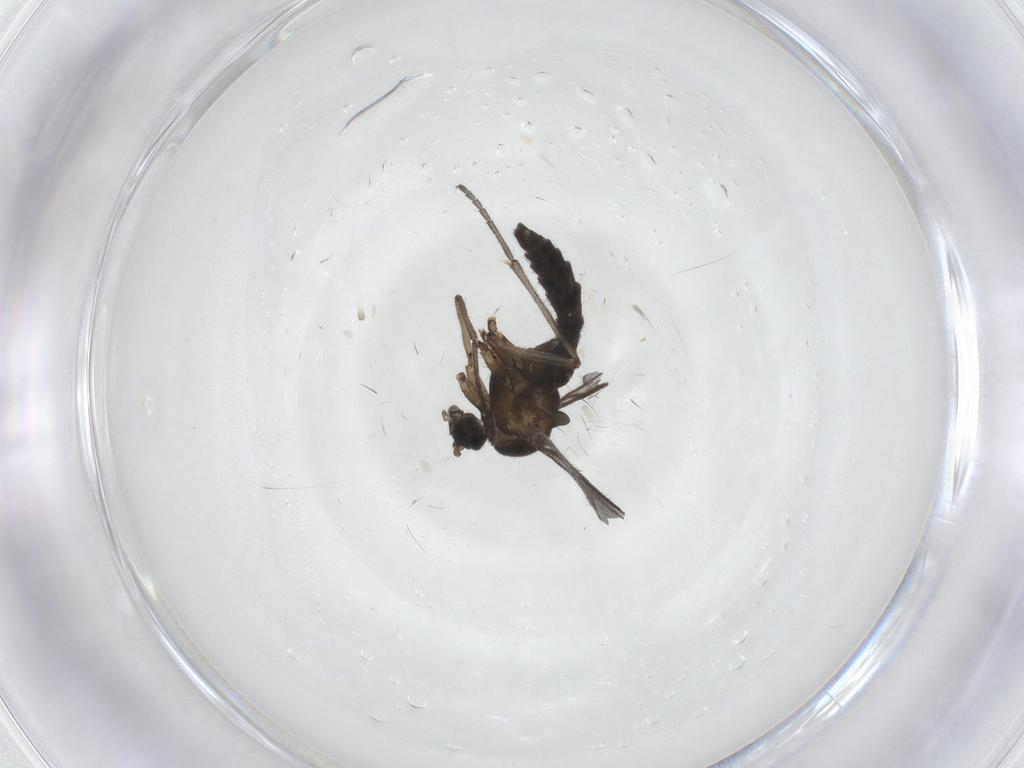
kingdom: Animalia
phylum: Arthropoda
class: Insecta
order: Diptera
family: Sciaridae
